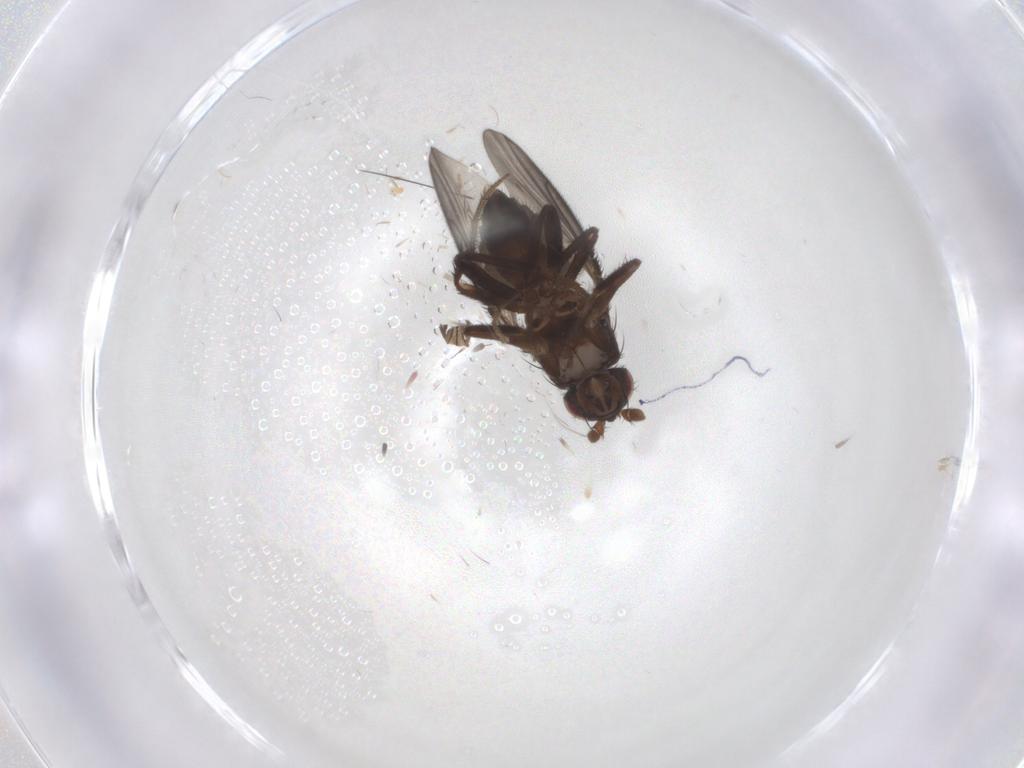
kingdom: Animalia
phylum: Arthropoda
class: Insecta
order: Diptera
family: Sphaeroceridae
